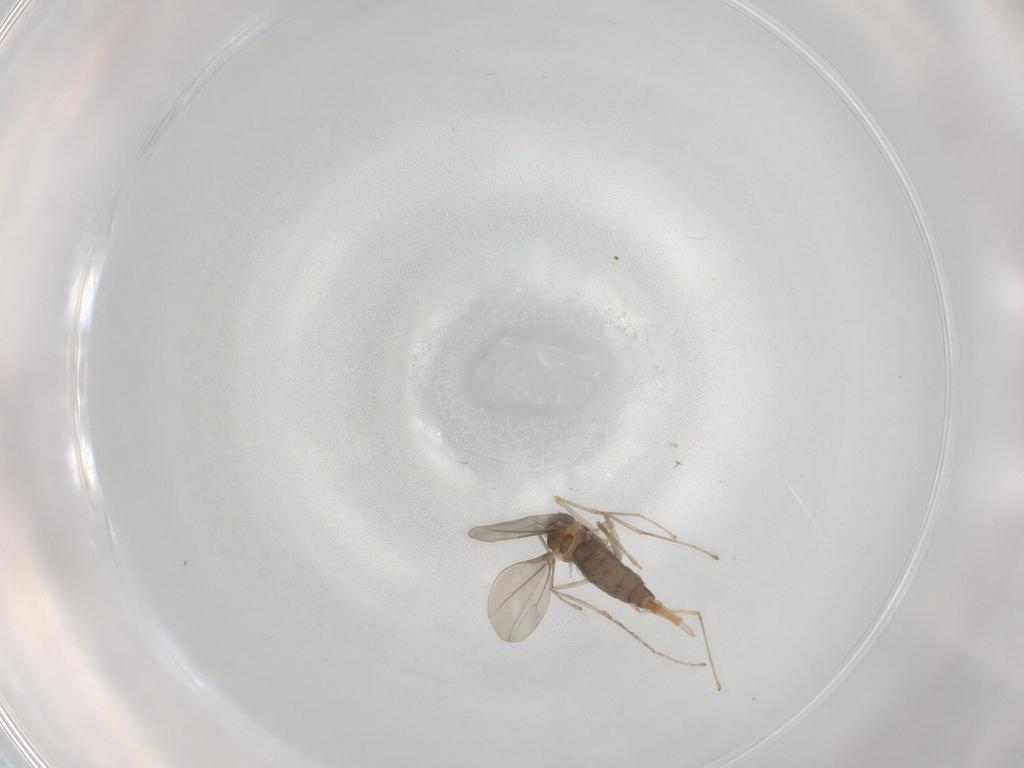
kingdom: Animalia
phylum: Arthropoda
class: Insecta
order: Diptera
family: Cecidomyiidae
